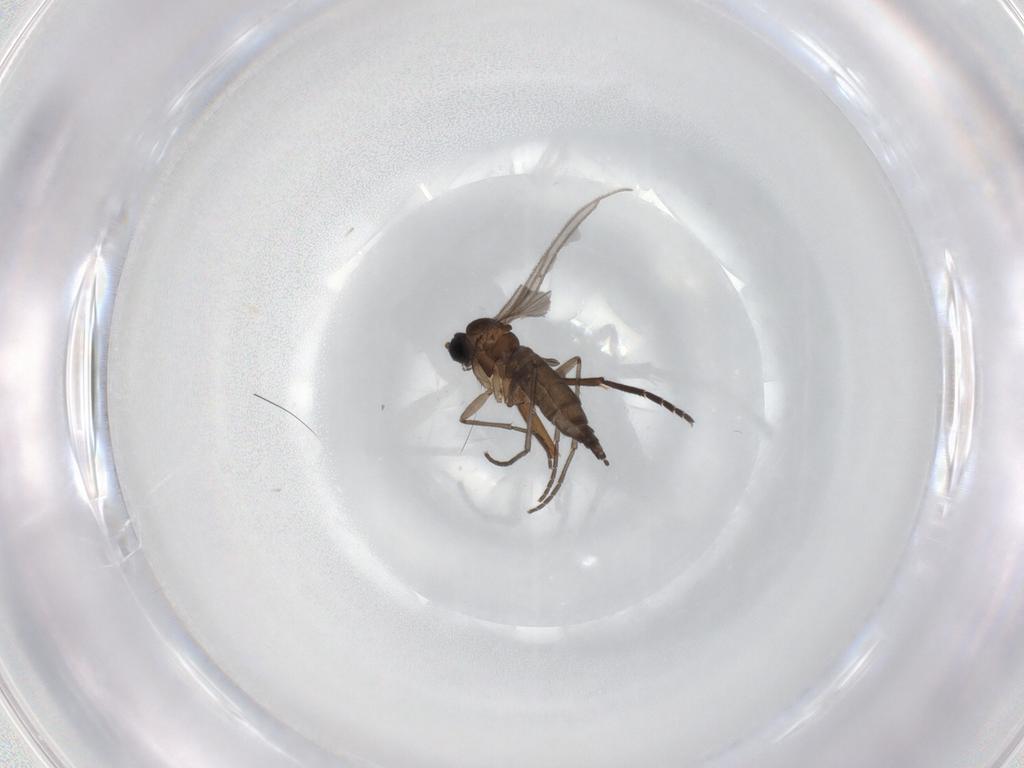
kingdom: Animalia
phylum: Arthropoda
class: Insecta
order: Diptera
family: Sciaridae
